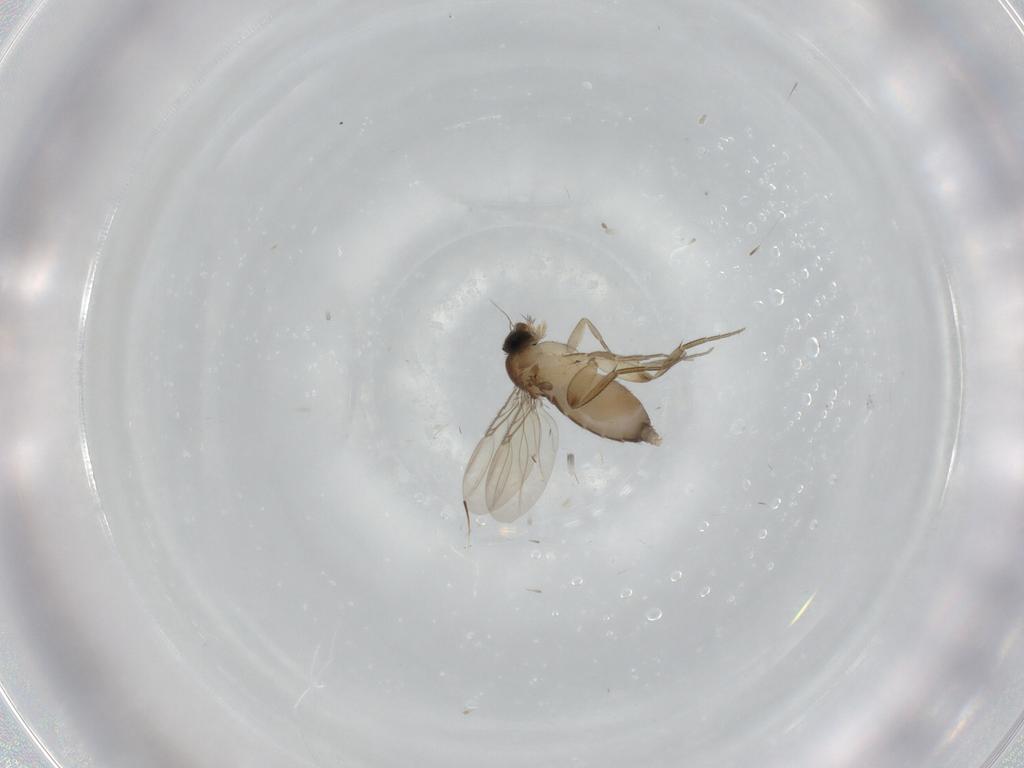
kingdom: Animalia
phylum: Arthropoda
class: Insecta
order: Diptera
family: Phoridae
